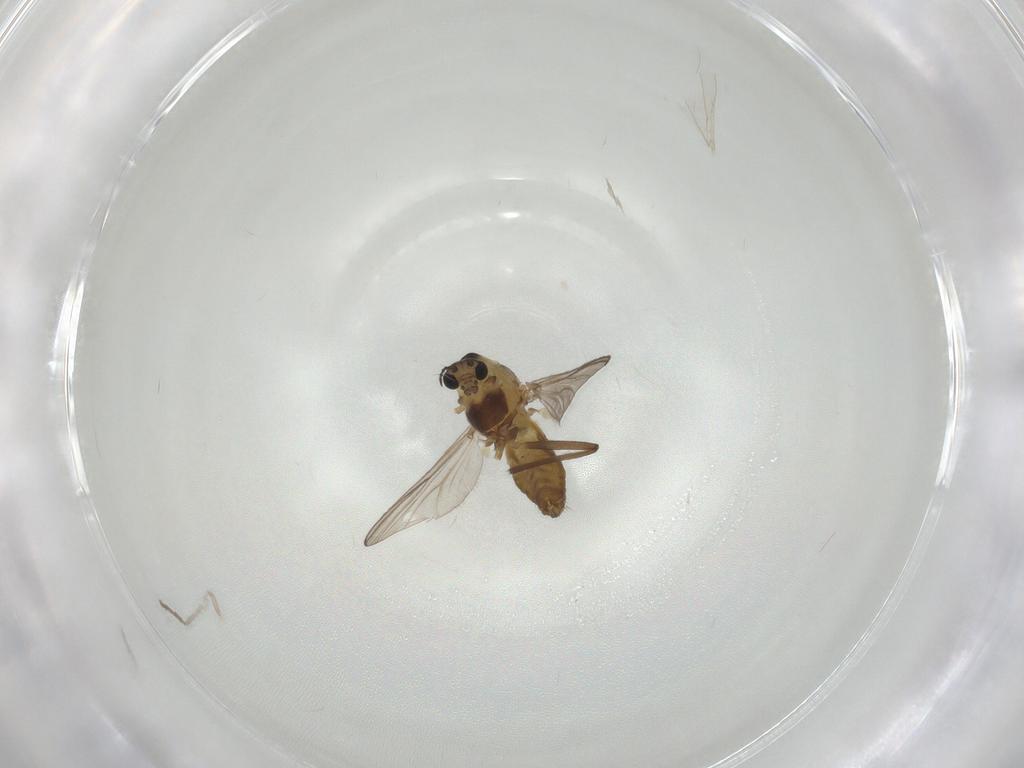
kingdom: Animalia
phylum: Arthropoda
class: Insecta
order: Diptera
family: Chironomidae
